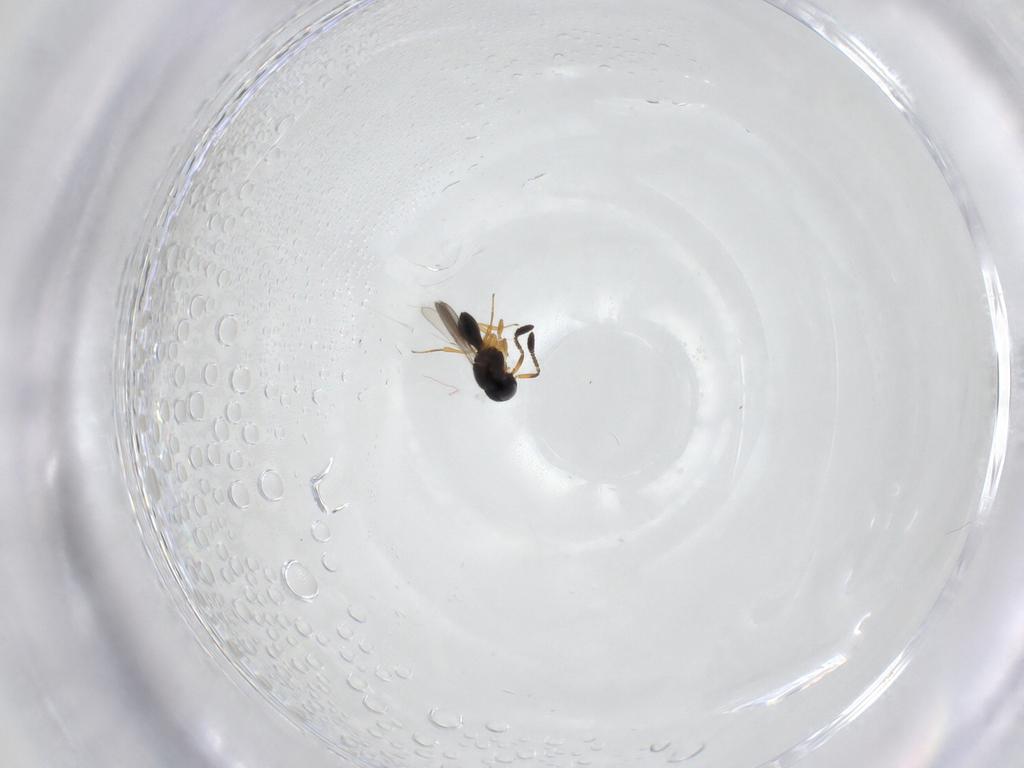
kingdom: Animalia
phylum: Arthropoda
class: Insecta
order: Hymenoptera
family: Scelionidae
